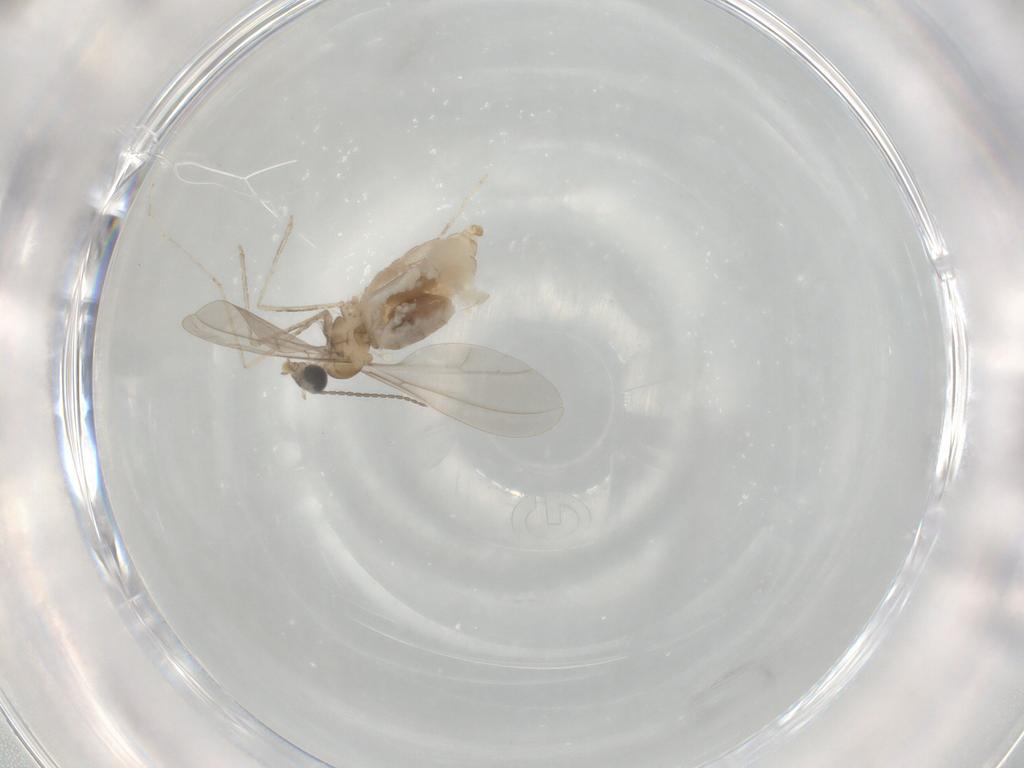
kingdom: Animalia
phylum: Arthropoda
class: Insecta
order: Diptera
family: Cecidomyiidae
